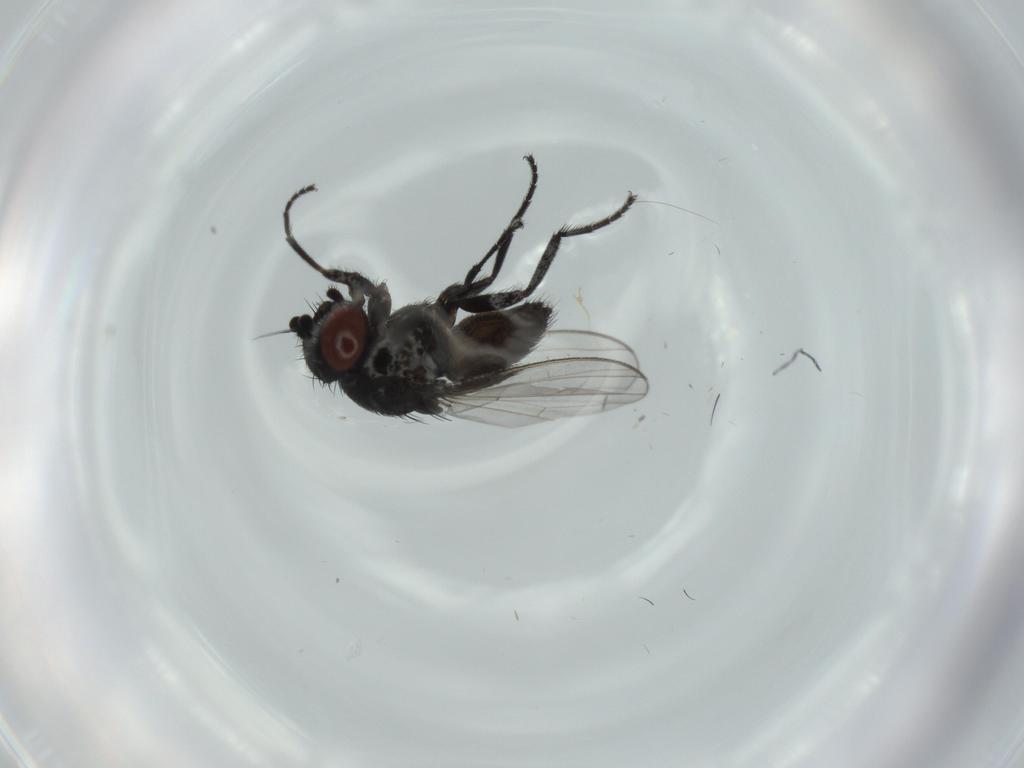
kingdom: Animalia
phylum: Arthropoda
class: Insecta
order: Diptera
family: Milichiidae
